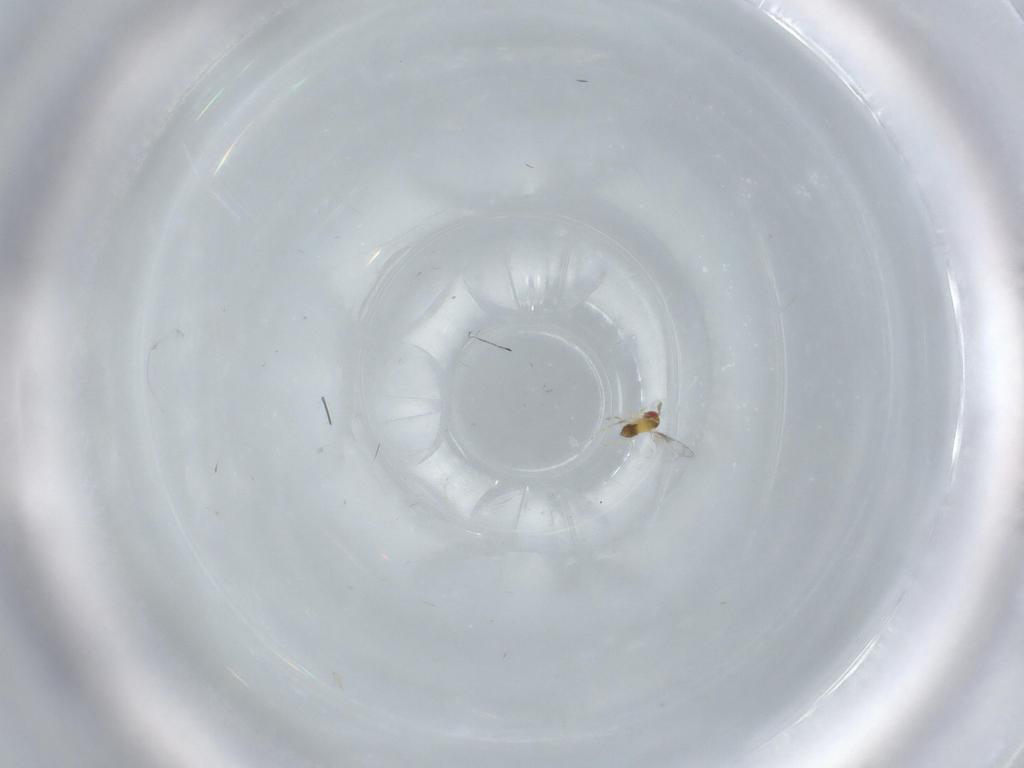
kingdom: Animalia
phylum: Arthropoda
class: Insecta
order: Hymenoptera
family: Trichogrammatidae
